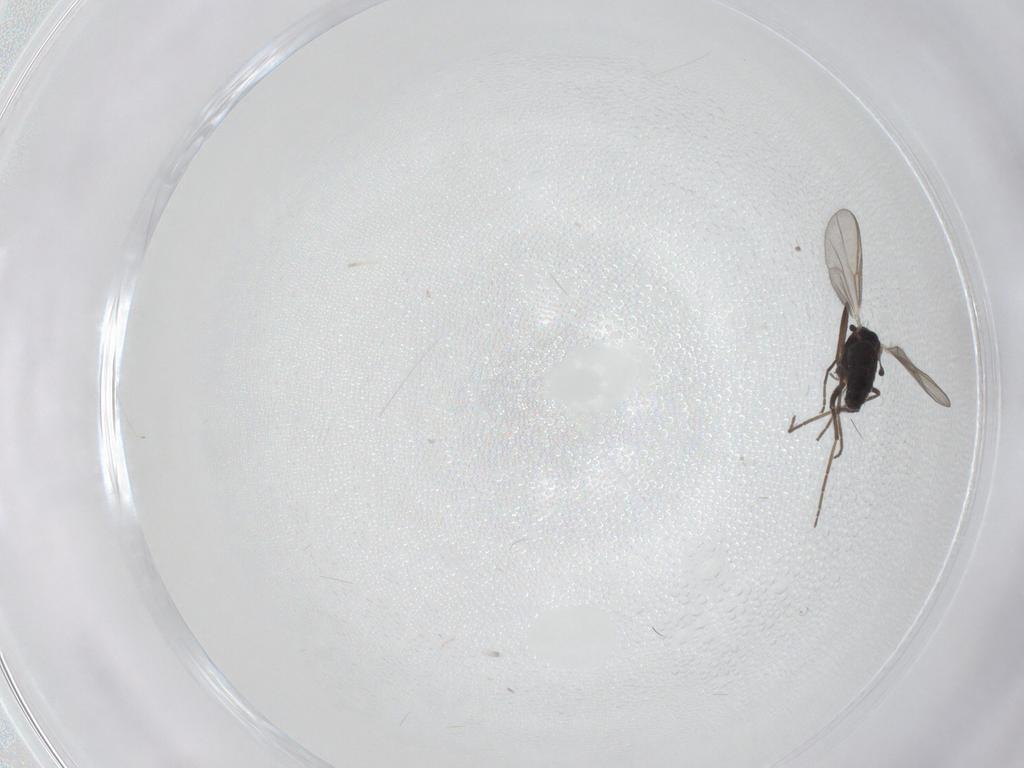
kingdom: Animalia
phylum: Arthropoda
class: Insecta
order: Diptera
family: Chironomidae
